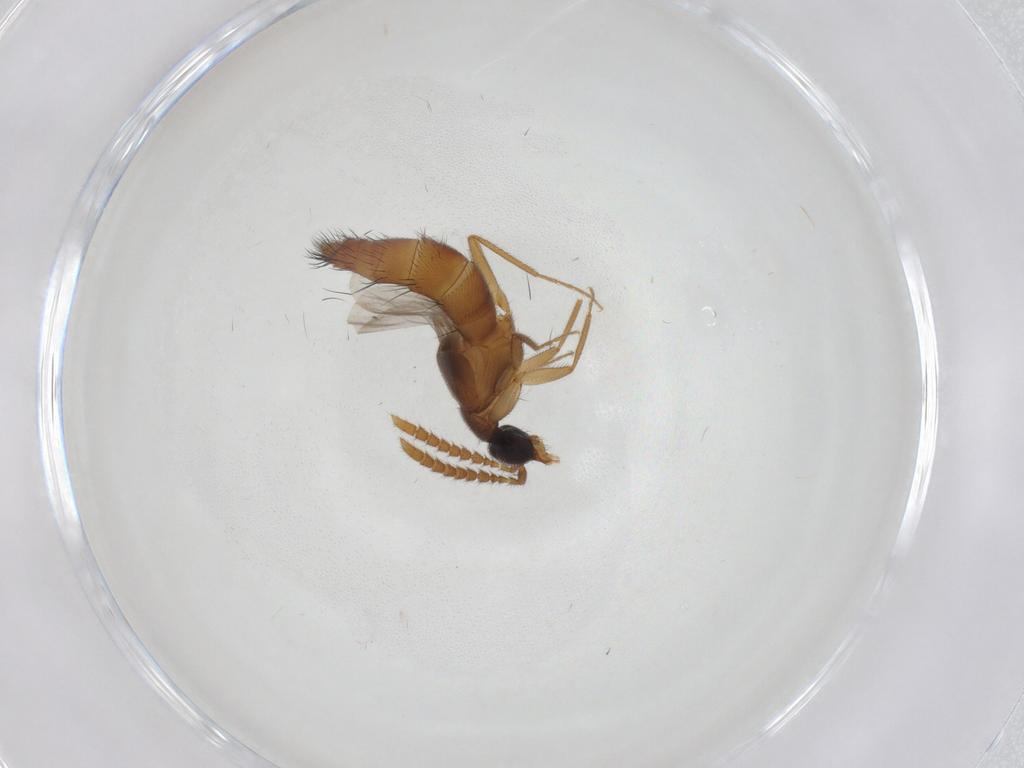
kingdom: Animalia
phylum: Arthropoda
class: Insecta
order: Coleoptera
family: Staphylinidae
